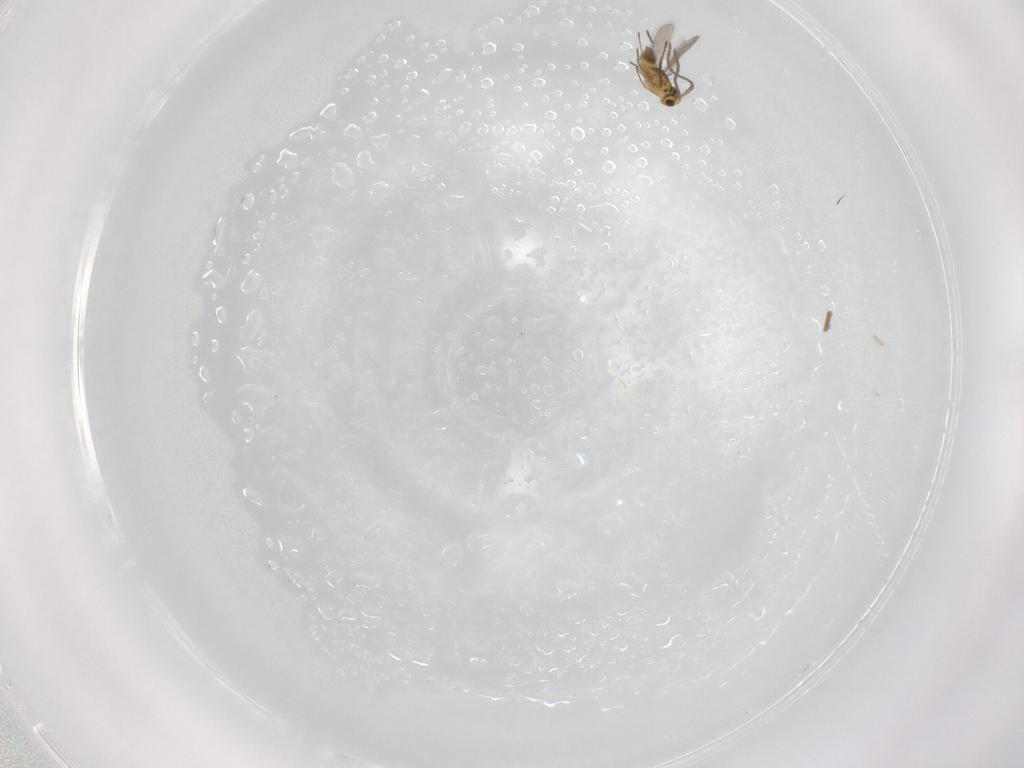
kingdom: Animalia
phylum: Arthropoda
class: Insecta
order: Hymenoptera
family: Mymaridae
